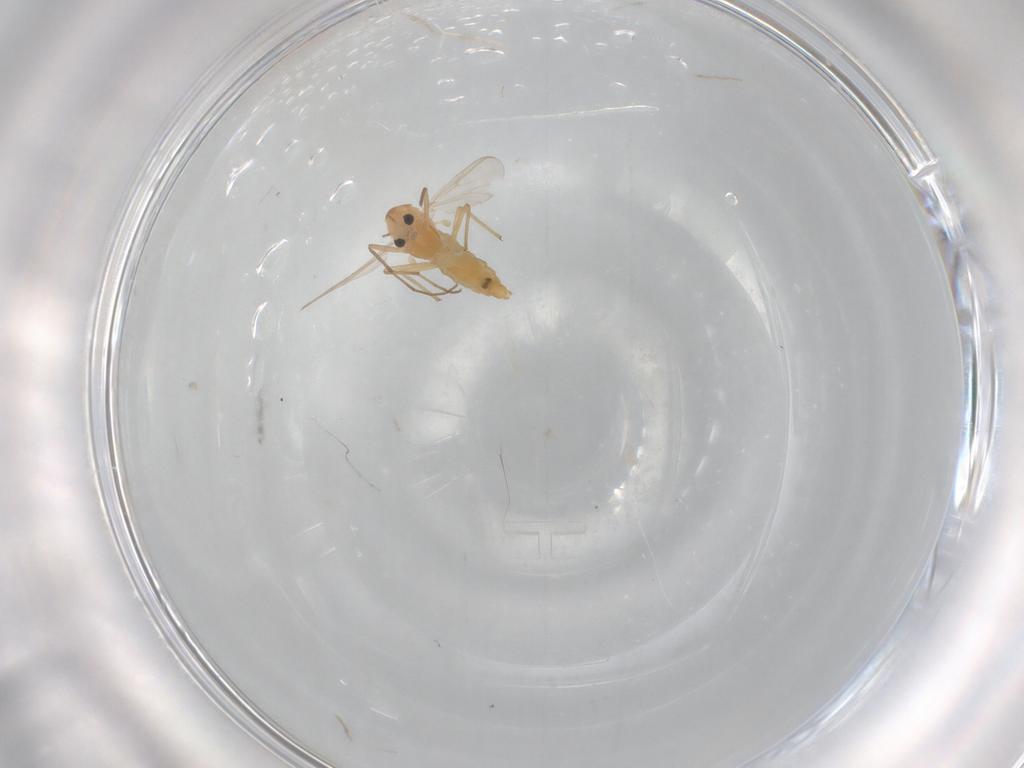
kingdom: Animalia
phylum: Arthropoda
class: Insecta
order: Diptera
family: Chironomidae
